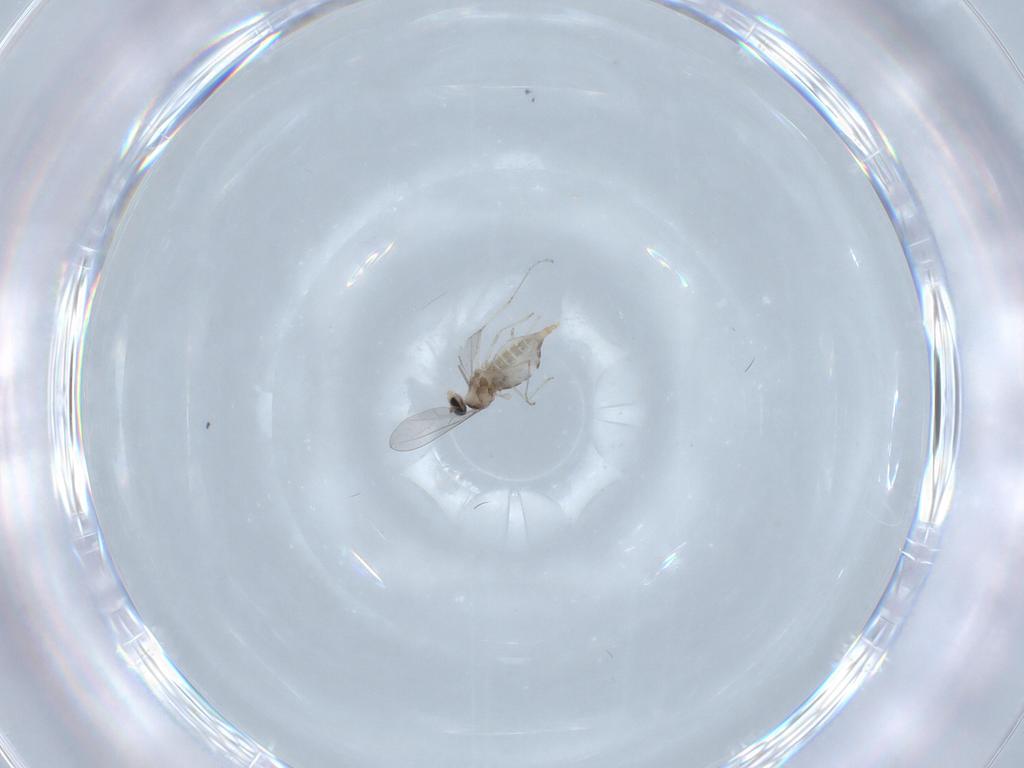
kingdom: Animalia
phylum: Arthropoda
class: Insecta
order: Diptera
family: Cecidomyiidae
